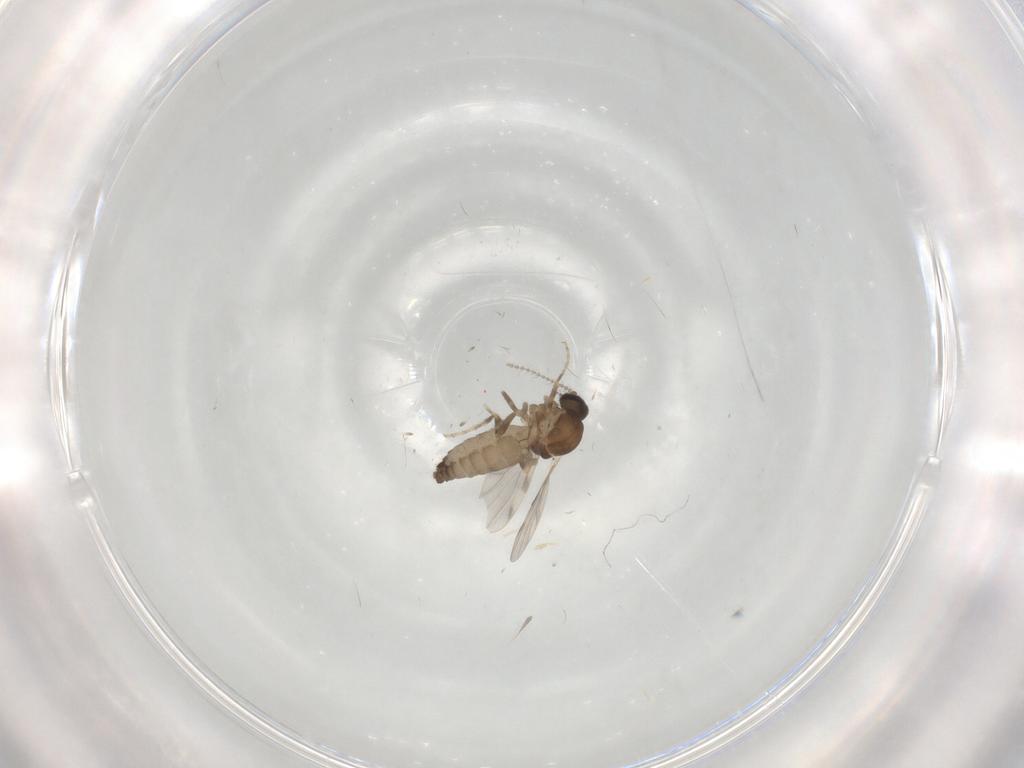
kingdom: Animalia
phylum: Arthropoda
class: Insecta
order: Diptera
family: Ceratopogonidae
